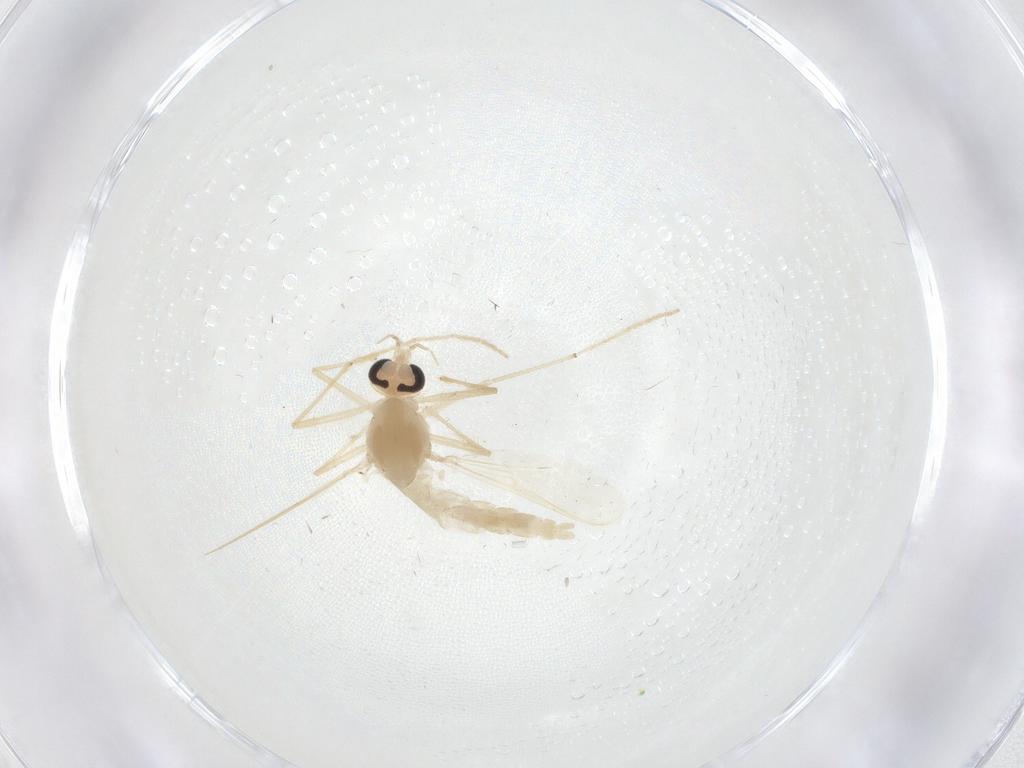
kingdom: Animalia
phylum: Arthropoda
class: Insecta
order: Diptera
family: Chironomidae
